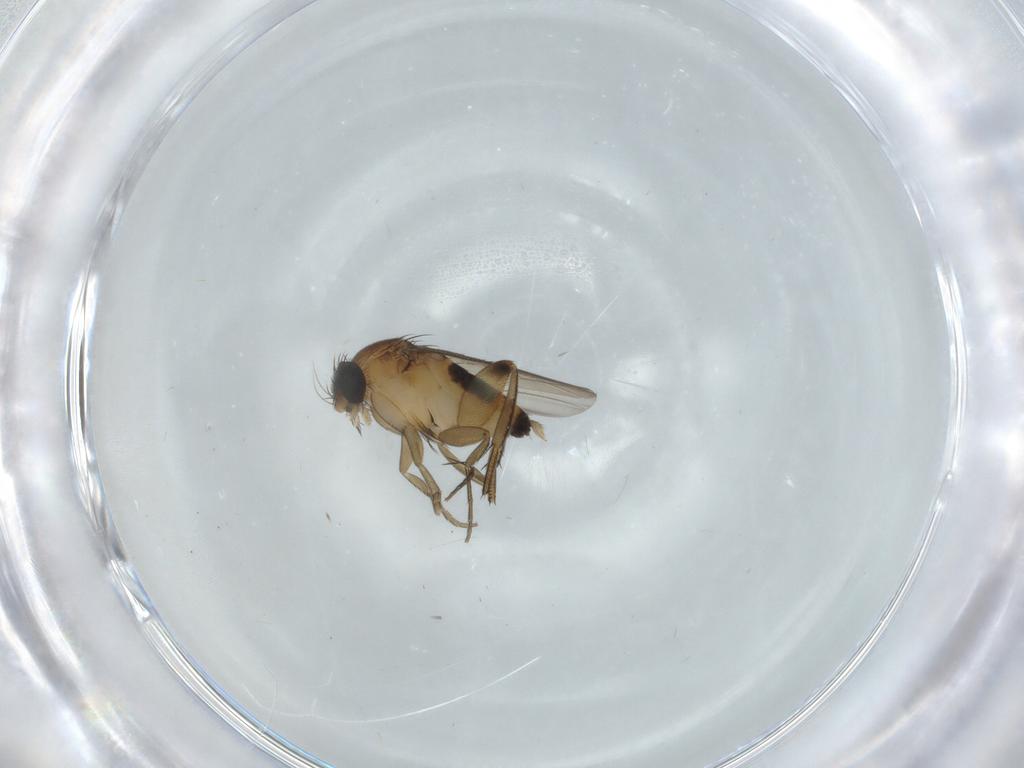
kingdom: Animalia
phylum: Arthropoda
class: Insecta
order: Diptera
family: Phoridae
